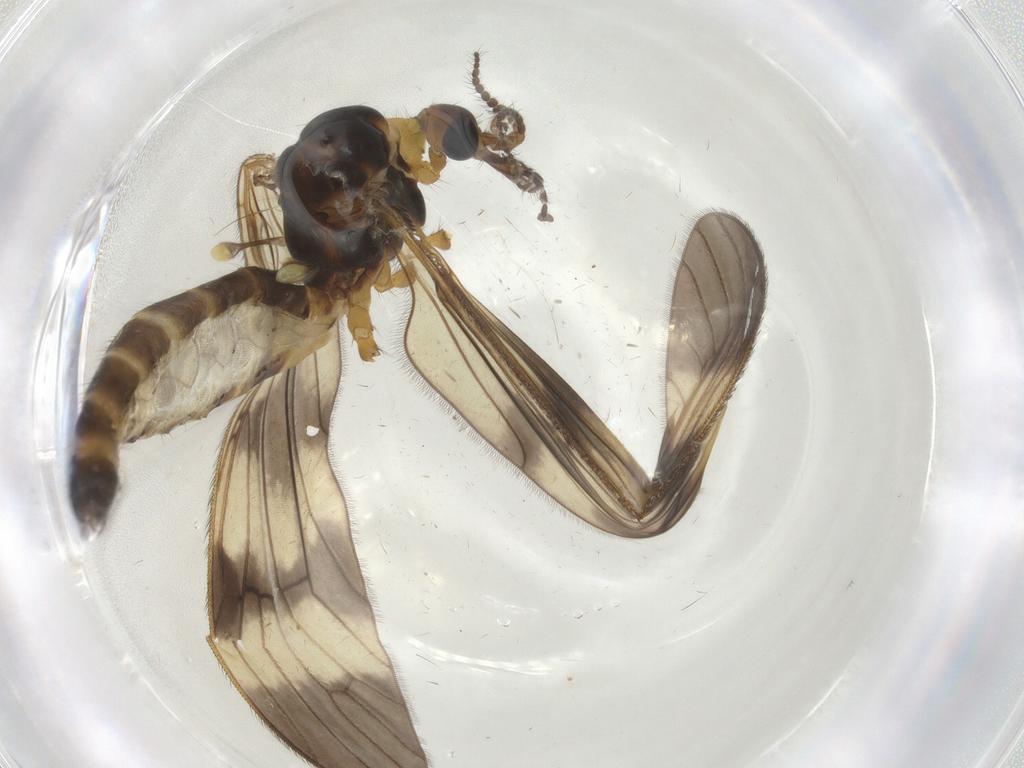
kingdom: Animalia
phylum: Arthropoda
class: Insecta
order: Diptera
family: Limoniidae
